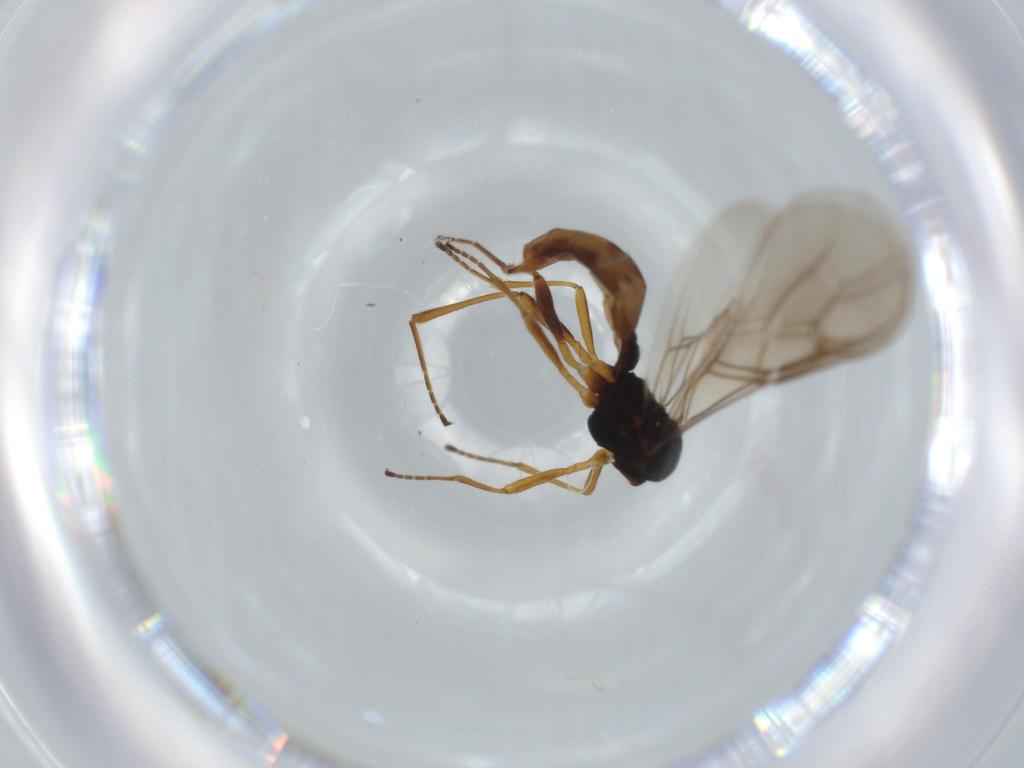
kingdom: Animalia
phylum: Arthropoda
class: Insecta
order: Hymenoptera
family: Braconidae
